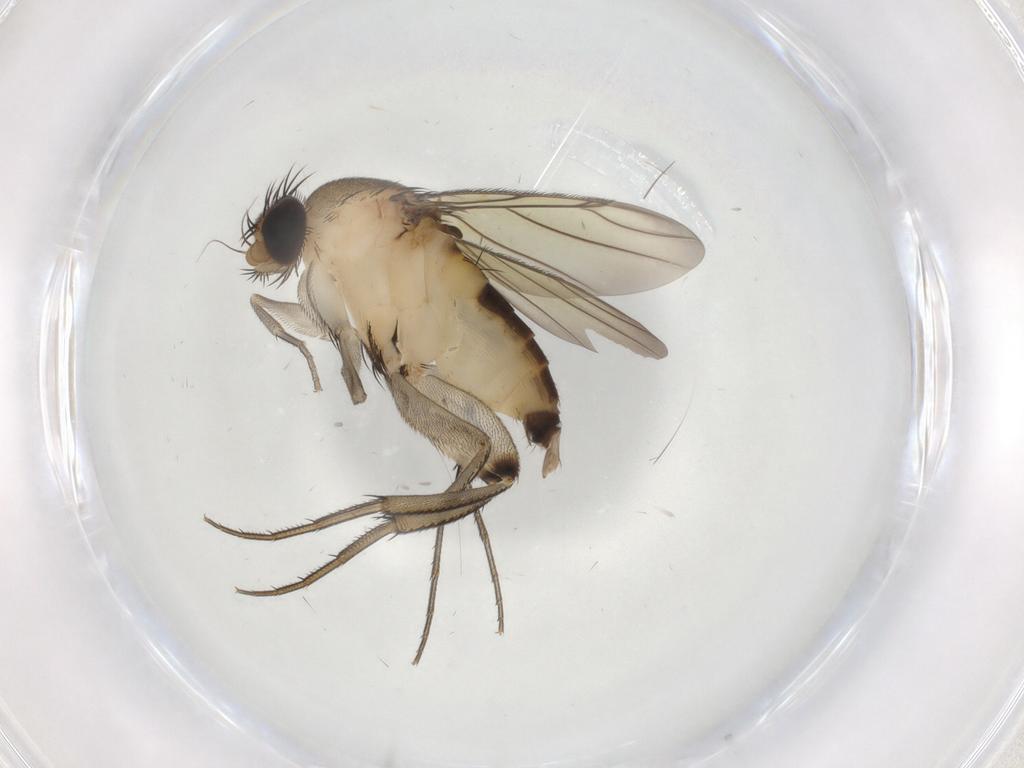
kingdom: Animalia
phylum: Arthropoda
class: Insecta
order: Diptera
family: Phoridae
